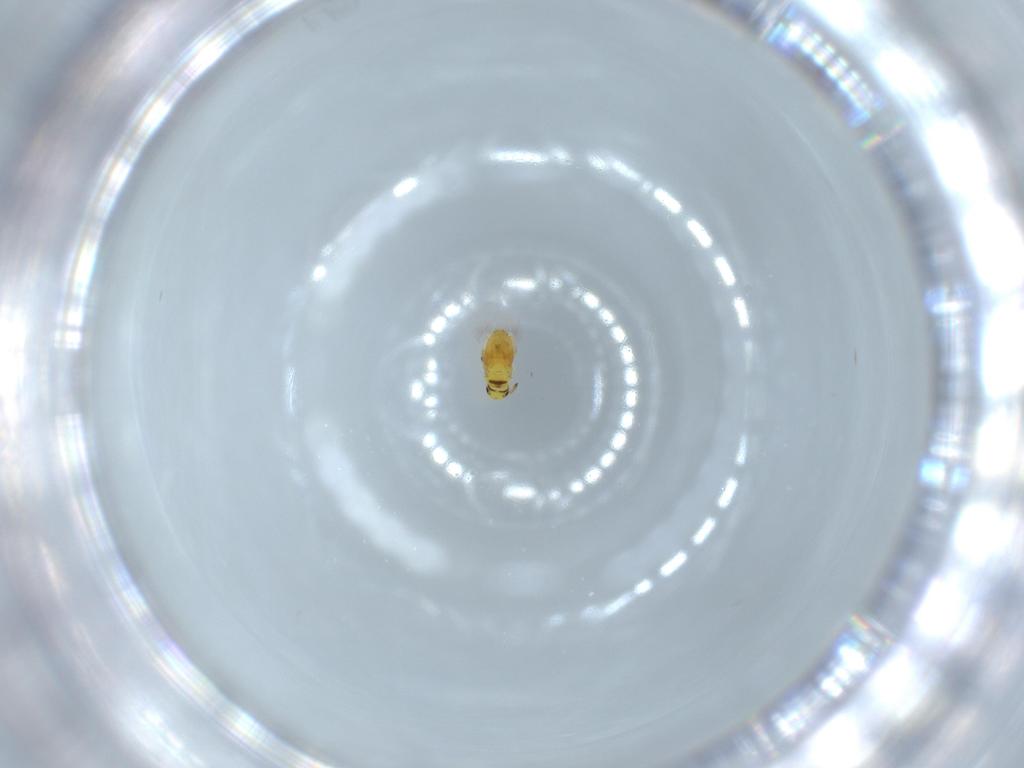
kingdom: Animalia
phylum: Arthropoda
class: Insecta
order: Hymenoptera
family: Signiphoridae
